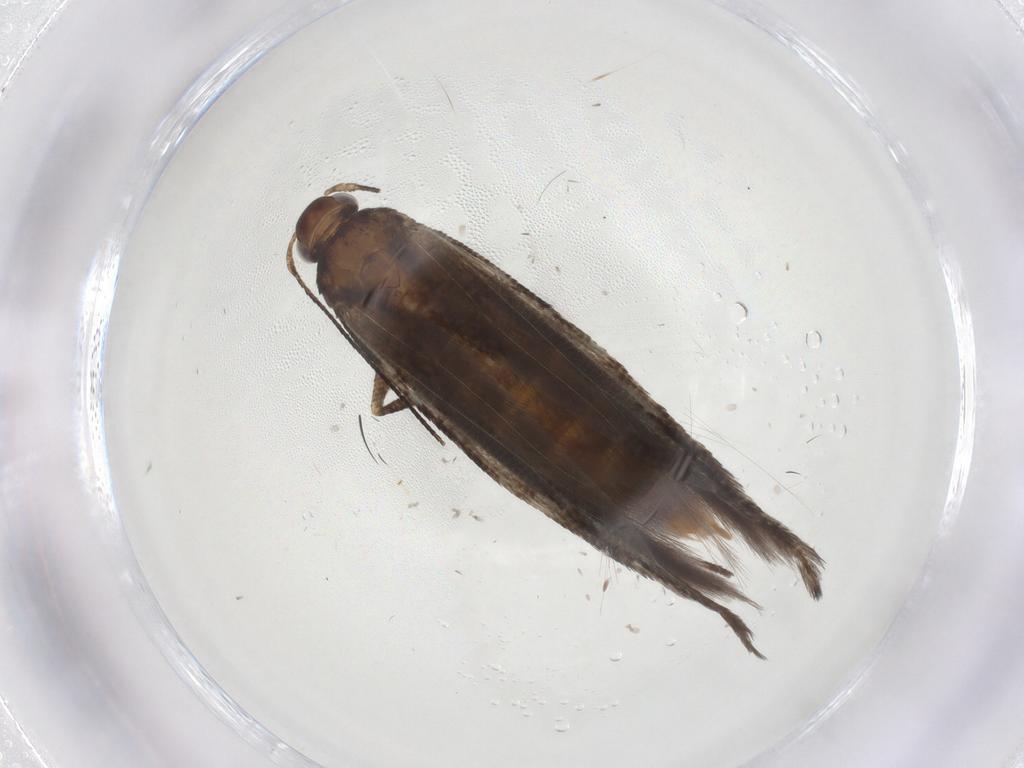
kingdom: Animalia
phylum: Arthropoda
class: Insecta
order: Lepidoptera
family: Gelechiidae
